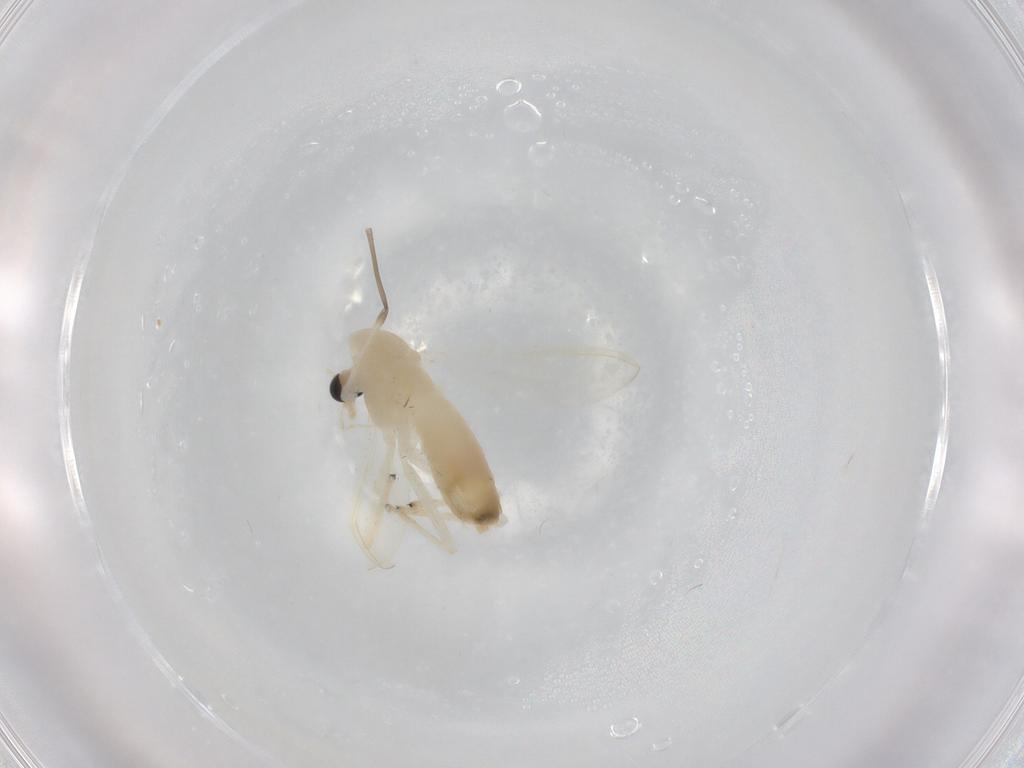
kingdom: Animalia
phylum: Arthropoda
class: Insecta
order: Diptera
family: Chironomidae
